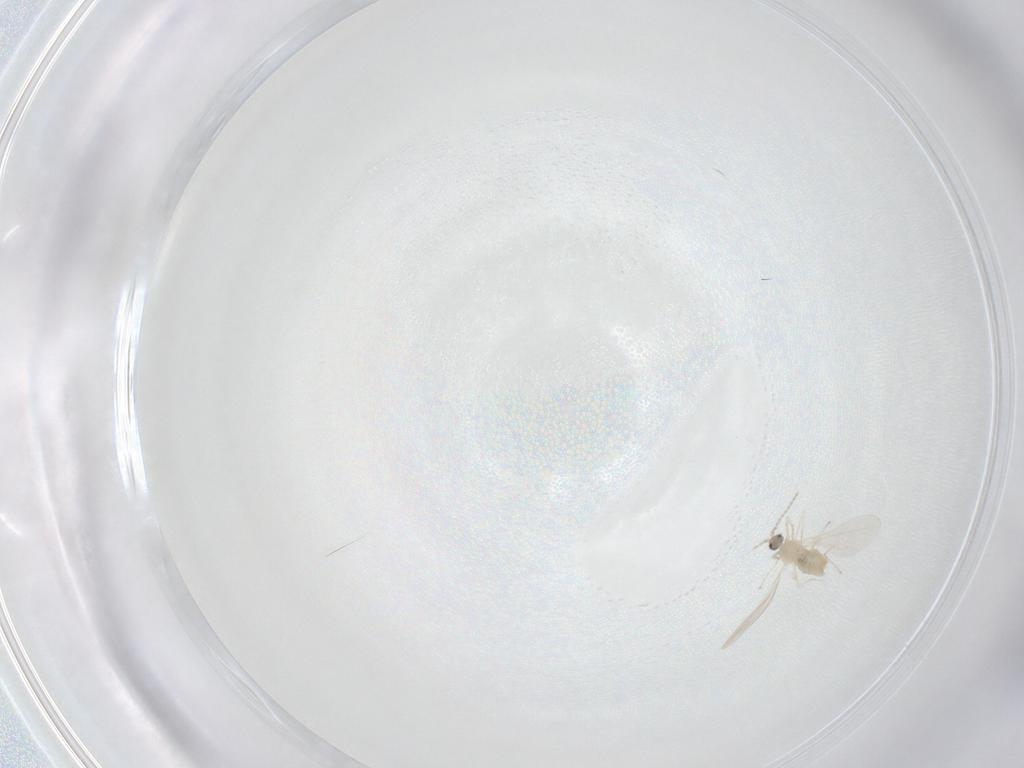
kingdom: Animalia
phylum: Arthropoda
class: Insecta
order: Diptera
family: Cecidomyiidae
